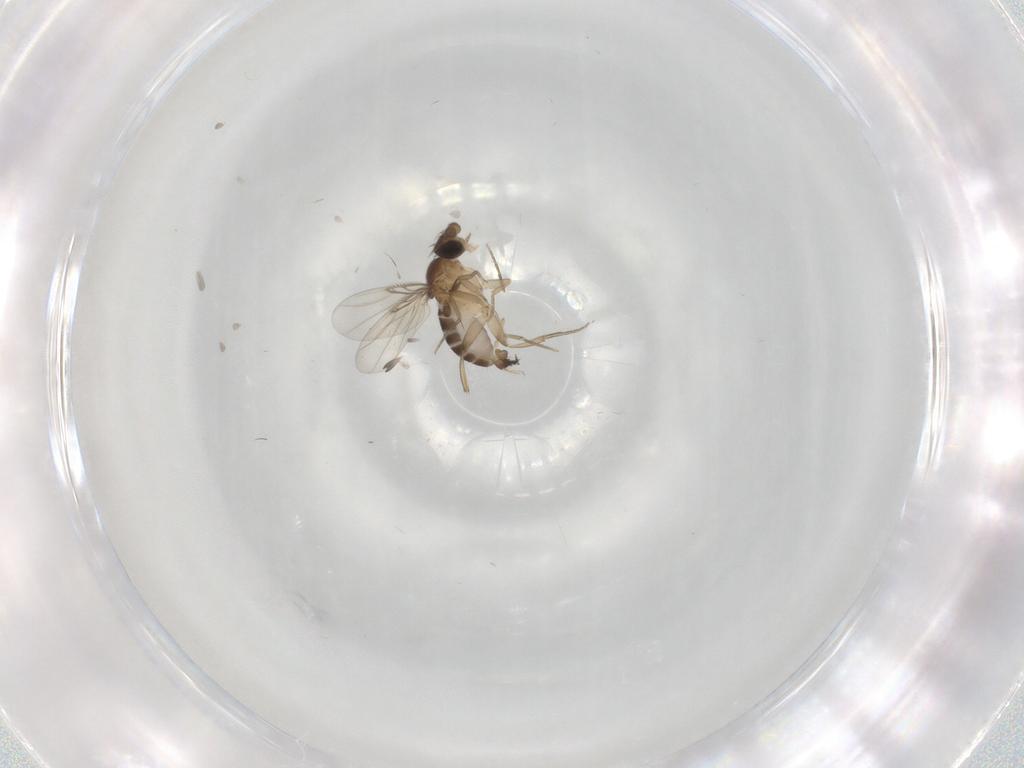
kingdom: Animalia
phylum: Arthropoda
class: Insecta
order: Diptera
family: Phoridae
